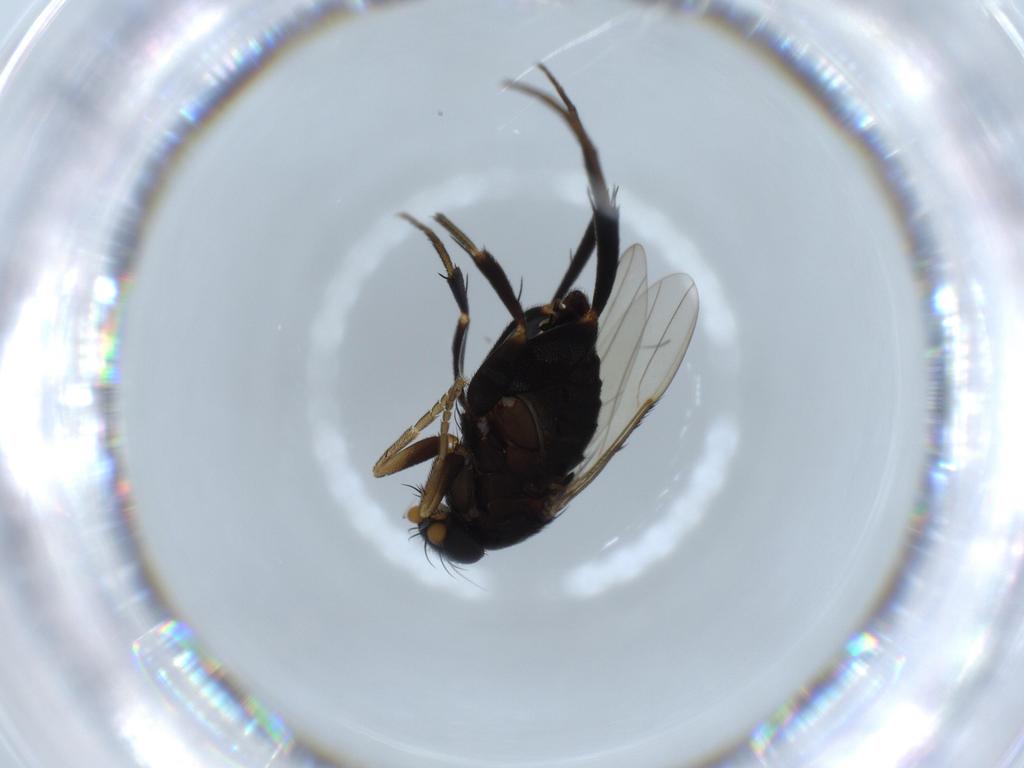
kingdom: Animalia
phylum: Arthropoda
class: Insecta
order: Diptera
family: Phoridae
